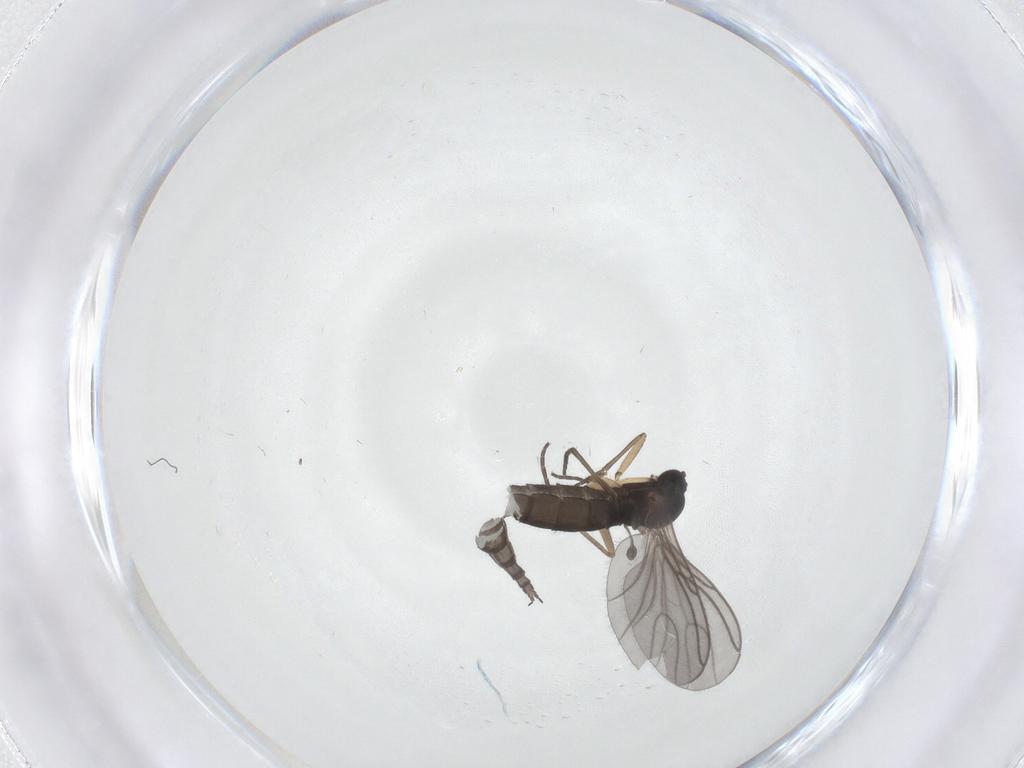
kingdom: Animalia
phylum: Arthropoda
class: Insecta
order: Diptera
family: Sciaridae
